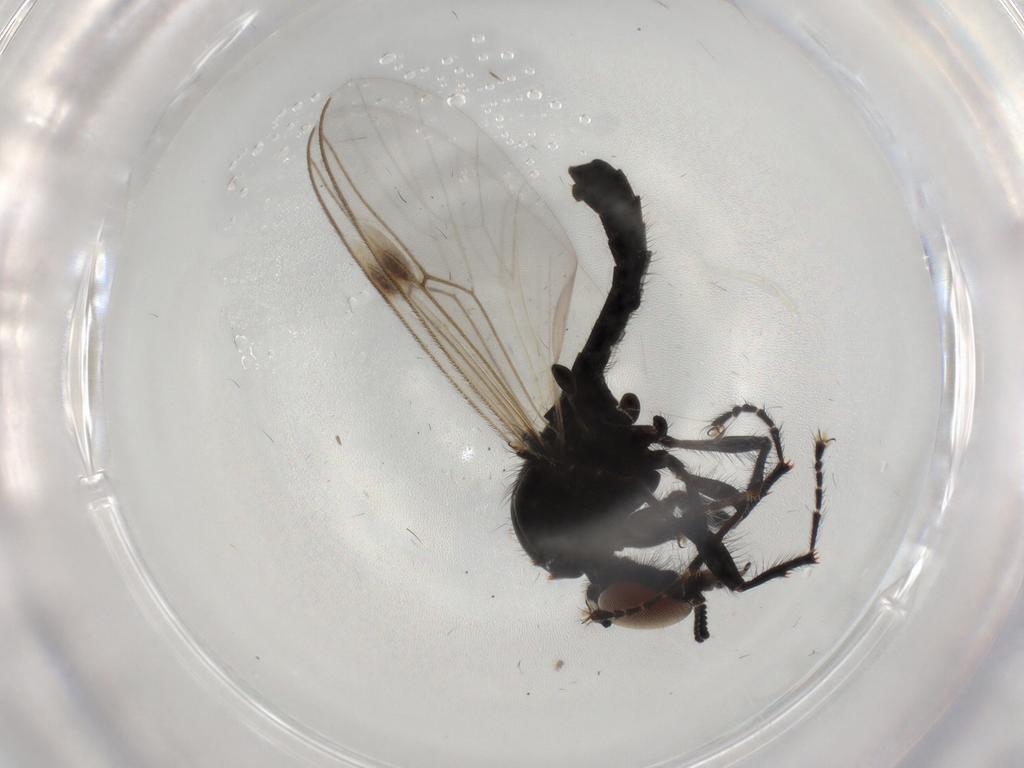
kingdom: Animalia
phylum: Arthropoda
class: Insecta
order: Diptera
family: Bibionidae
